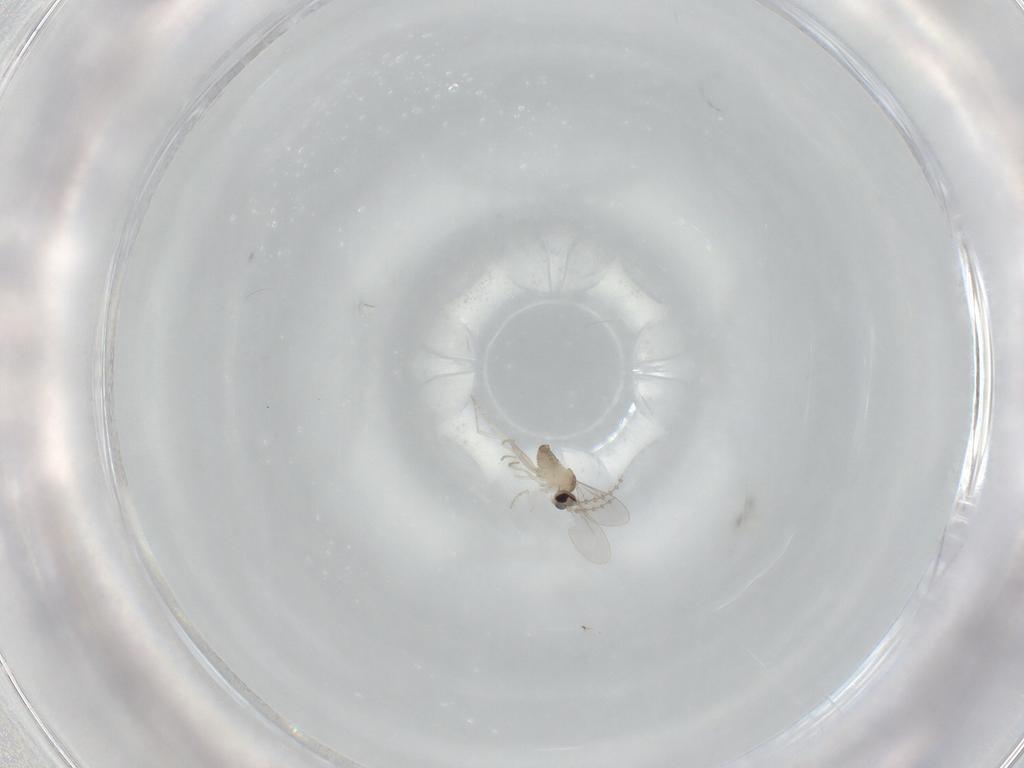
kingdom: Animalia
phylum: Arthropoda
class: Insecta
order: Diptera
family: Cecidomyiidae
